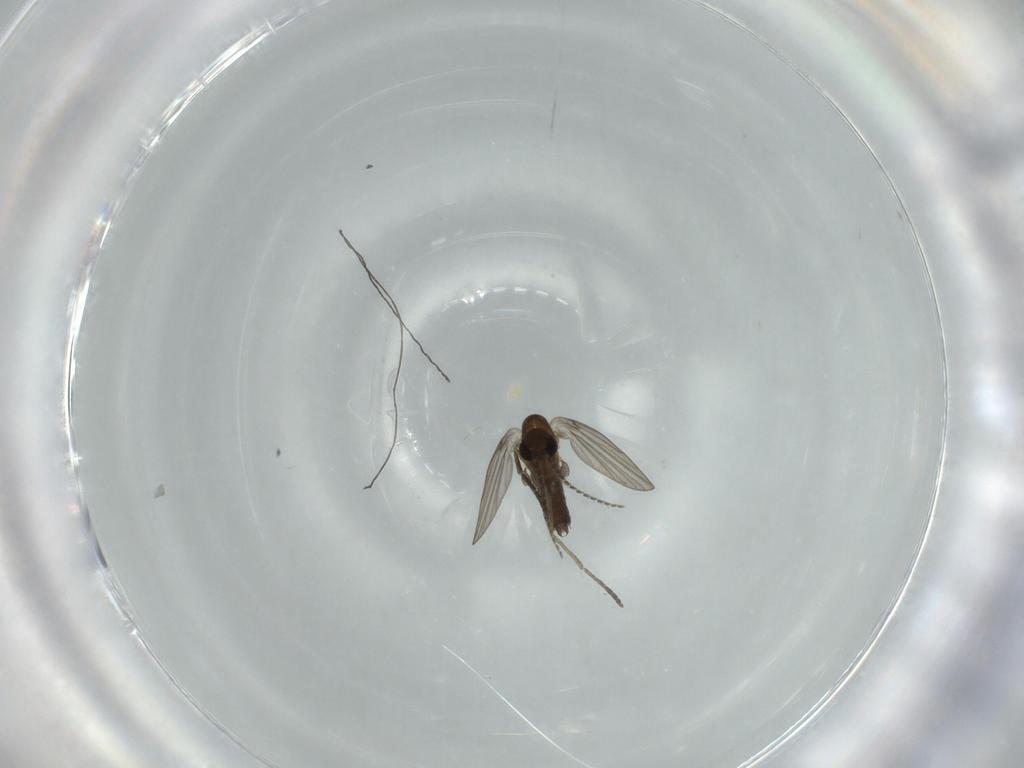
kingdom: Animalia
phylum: Arthropoda
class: Insecta
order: Diptera
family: Psychodidae
